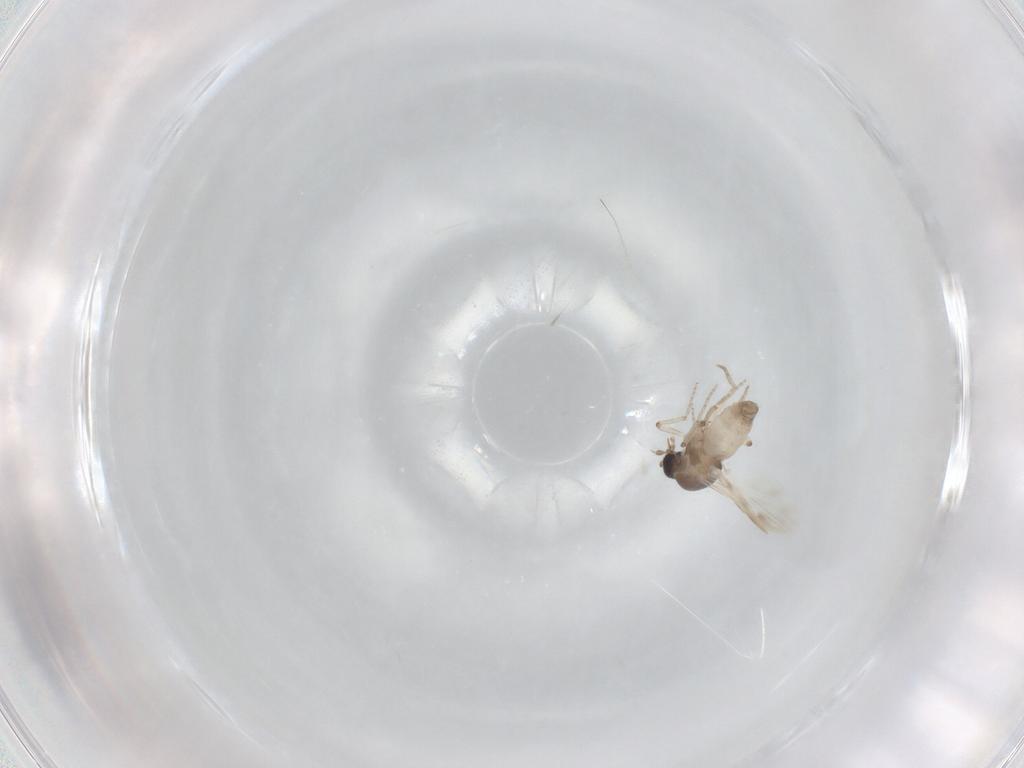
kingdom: Animalia
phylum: Arthropoda
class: Insecta
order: Diptera
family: Ceratopogonidae
